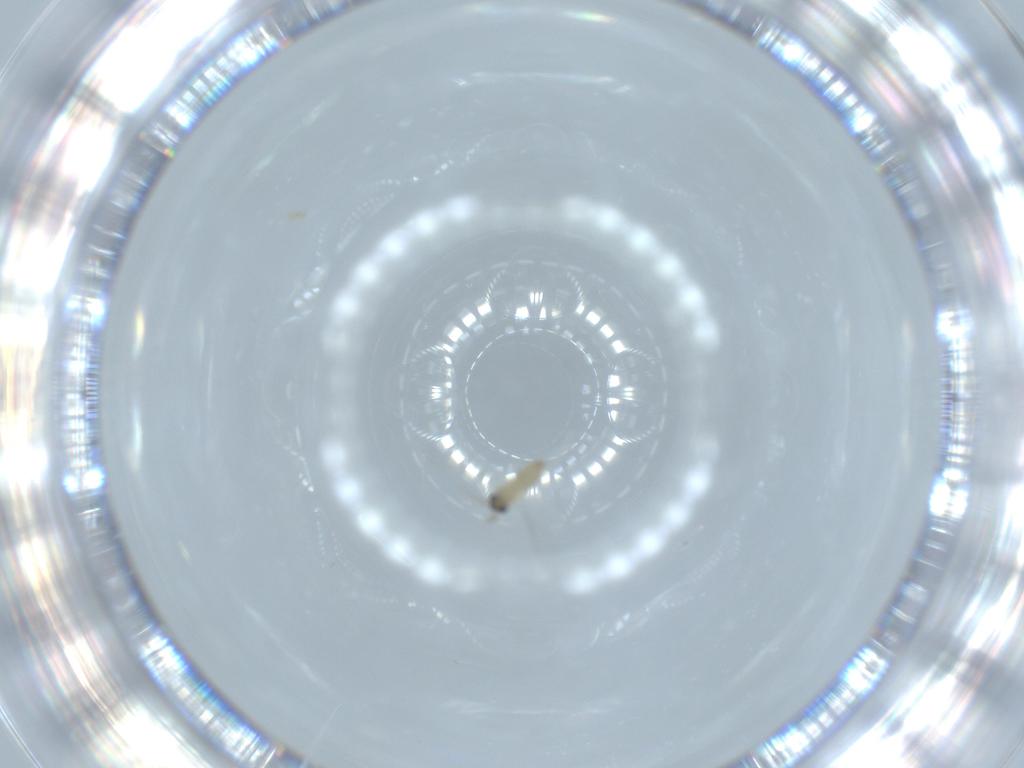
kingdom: Animalia
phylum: Arthropoda
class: Insecta
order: Diptera
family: Cecidomyiidae
